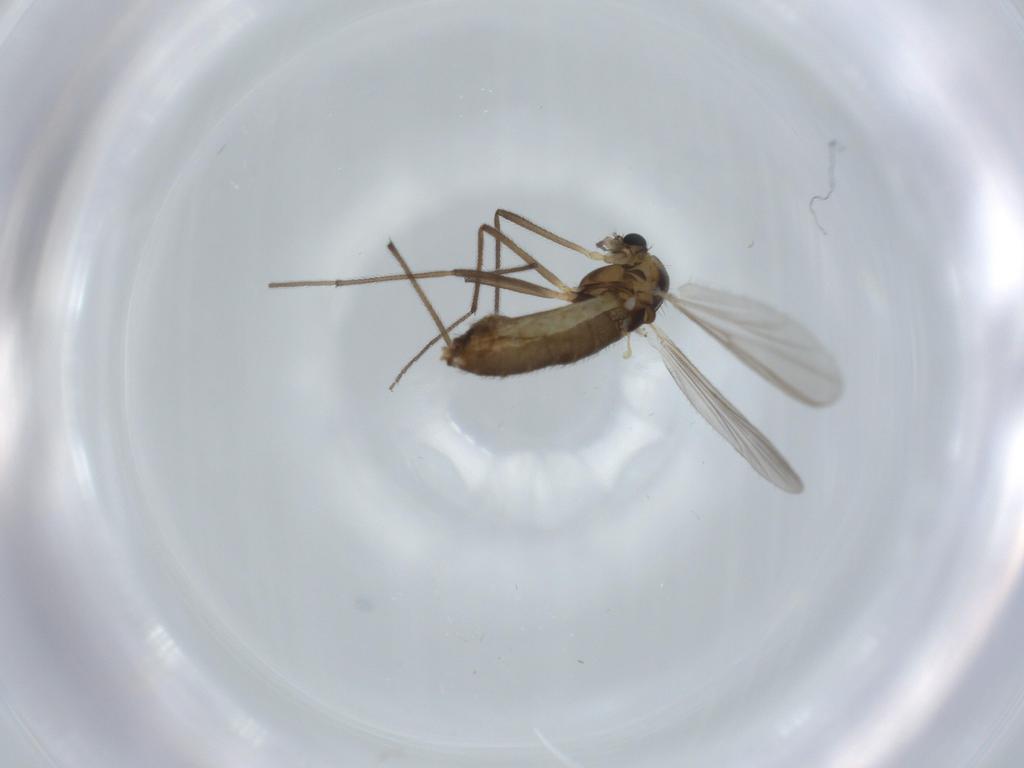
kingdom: Animalia
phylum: Arthropoda
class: Insecta
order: Diptera
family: Chironomidae
